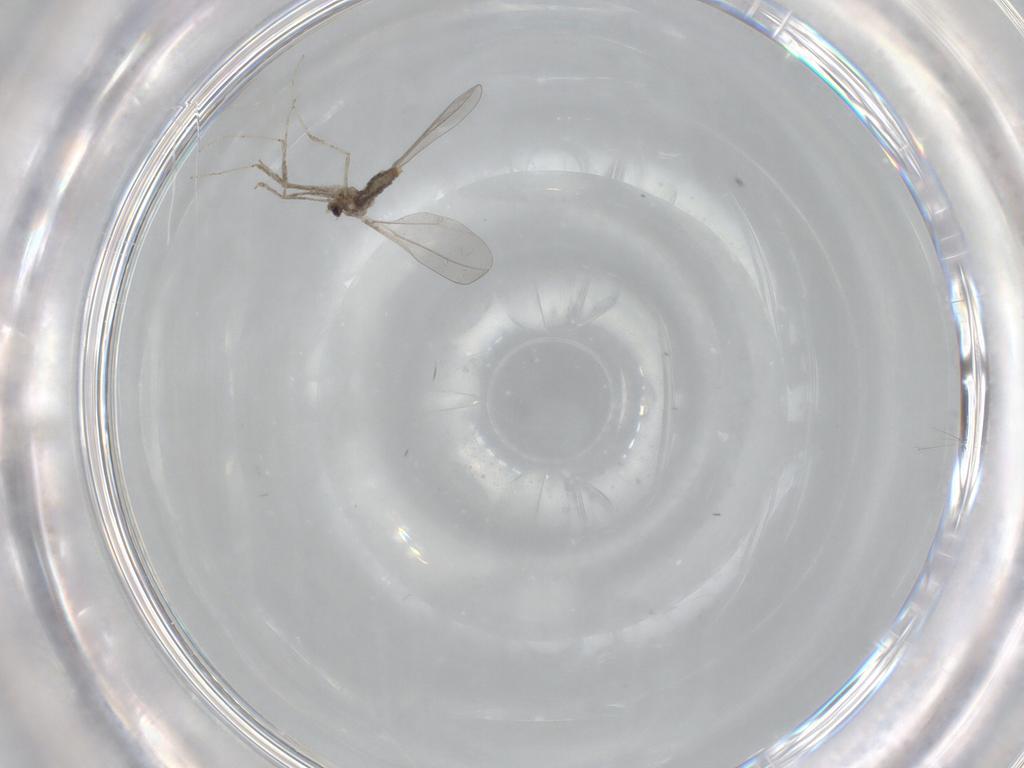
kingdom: Animalia
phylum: Arthropoda
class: Insecta
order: Diptera
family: Cecidomyiidae
